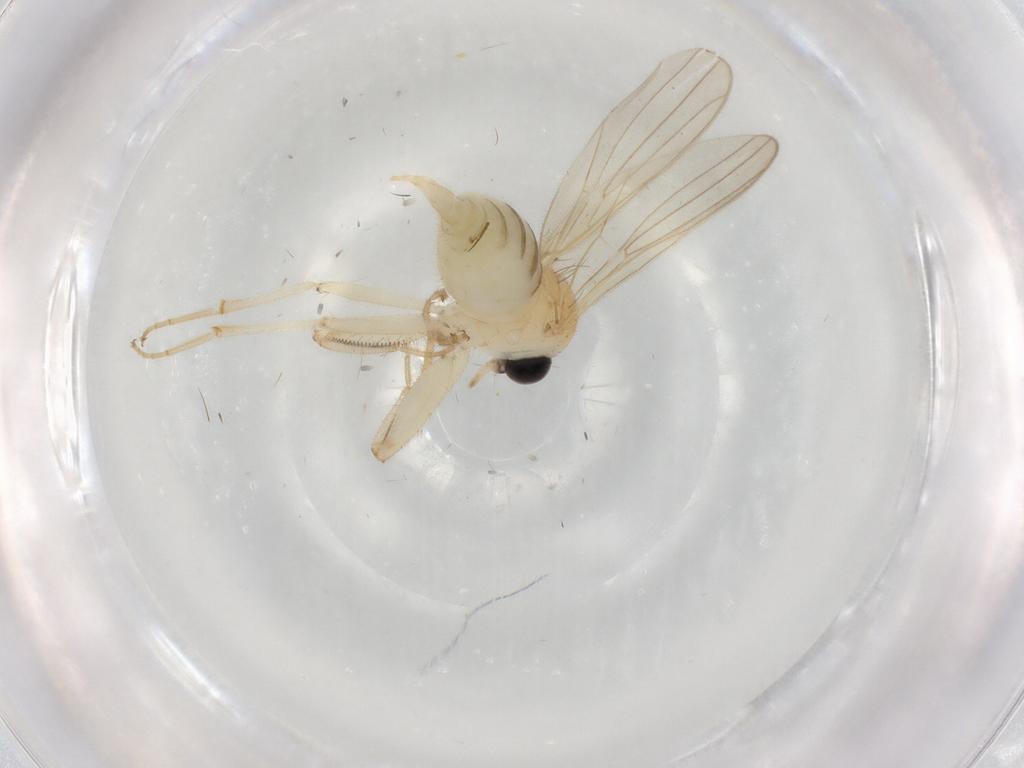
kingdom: Animalia
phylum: Arthropoda
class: Insecta
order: Diptera
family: Hybotidae
